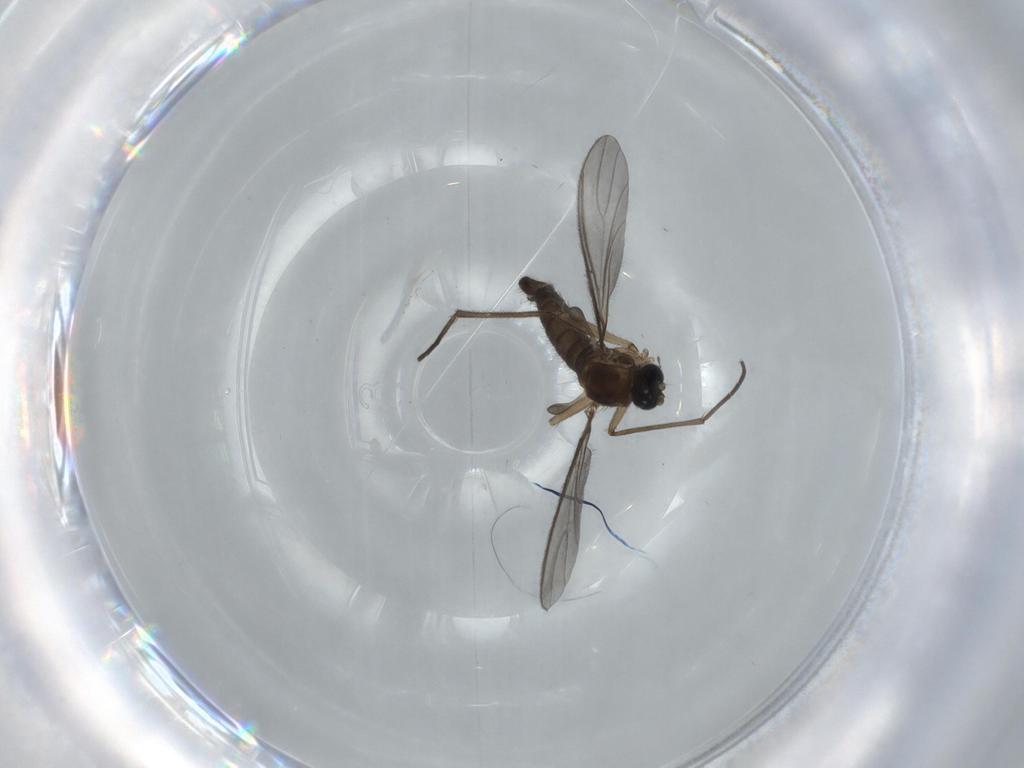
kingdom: Animalia
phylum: Arthropoda
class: Insecta
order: Diptera
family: Sciaridae
